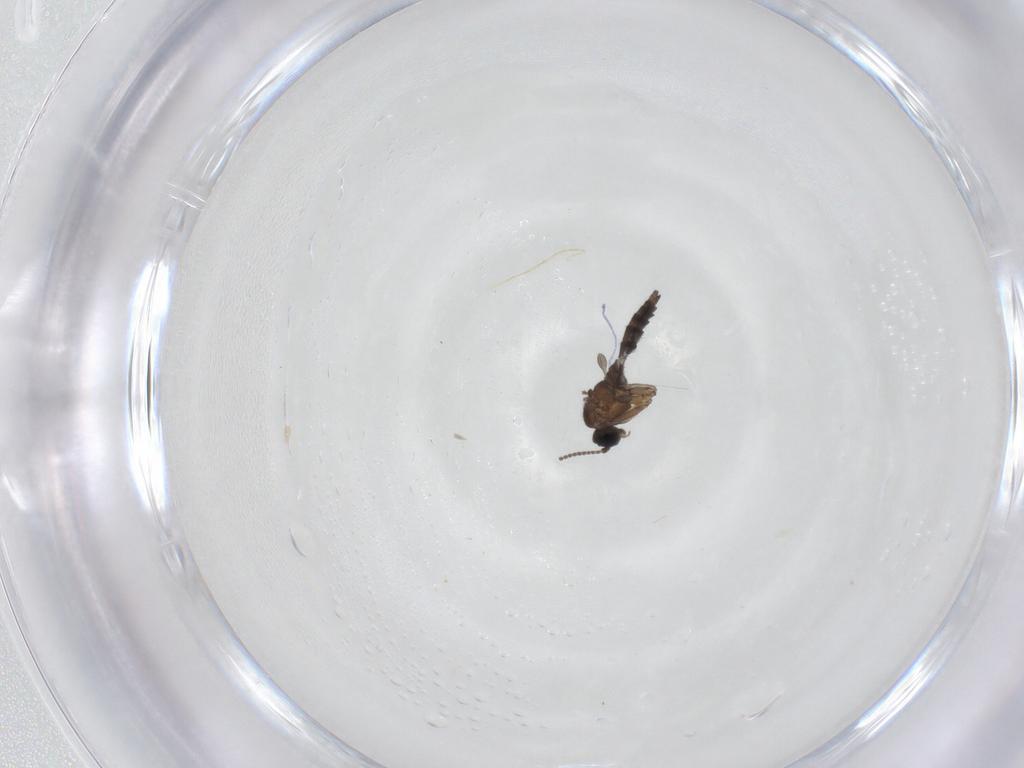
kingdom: Animalia
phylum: Arthropoda
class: Insecta
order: Diptera
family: Sciaridae
